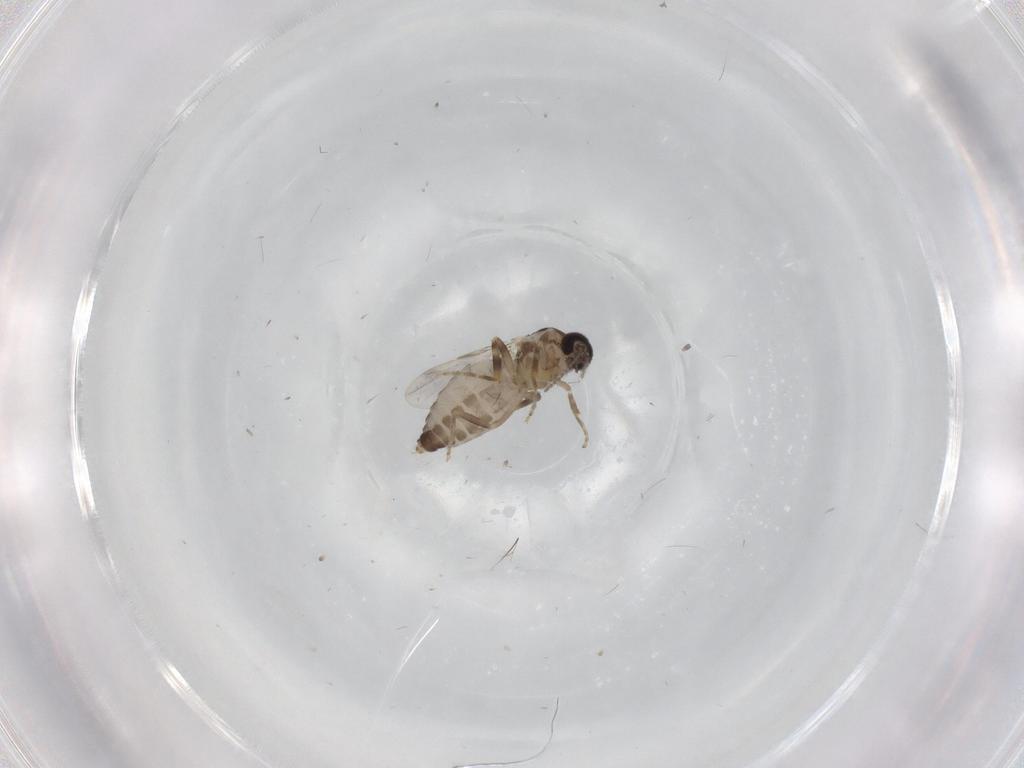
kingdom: Animalia
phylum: Arthropoda
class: Insecta
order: Diptera
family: Ceratopogonidae
